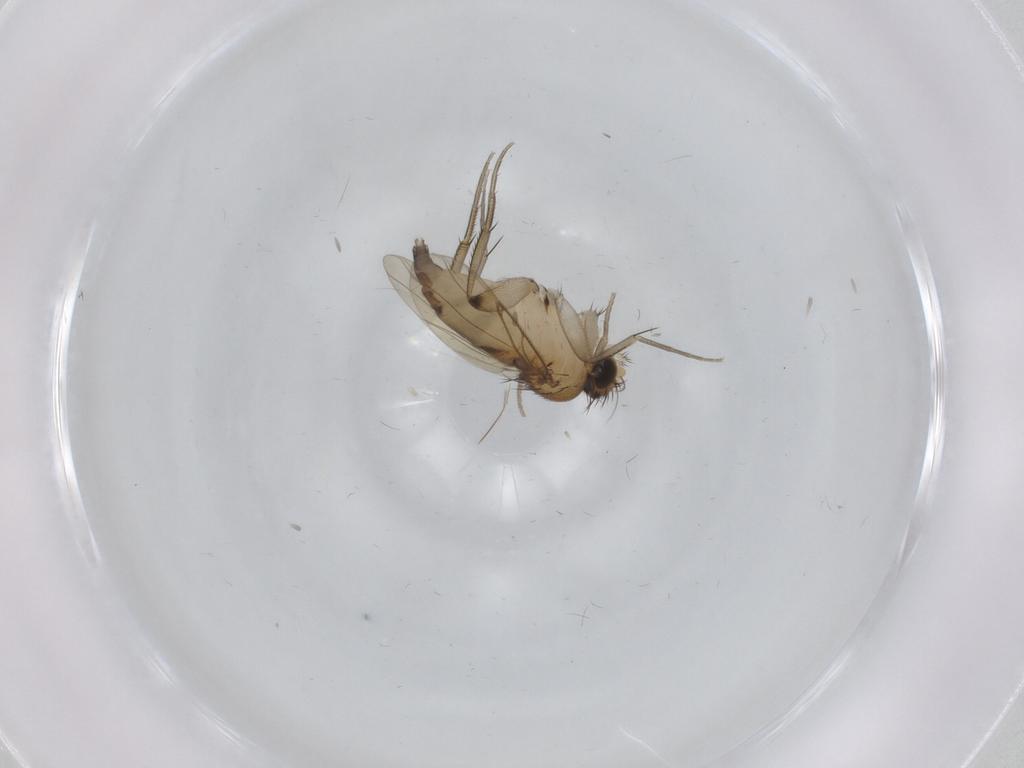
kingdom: Animalia
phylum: Arthropoda
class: Insecta
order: Diptera
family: Phoridae
